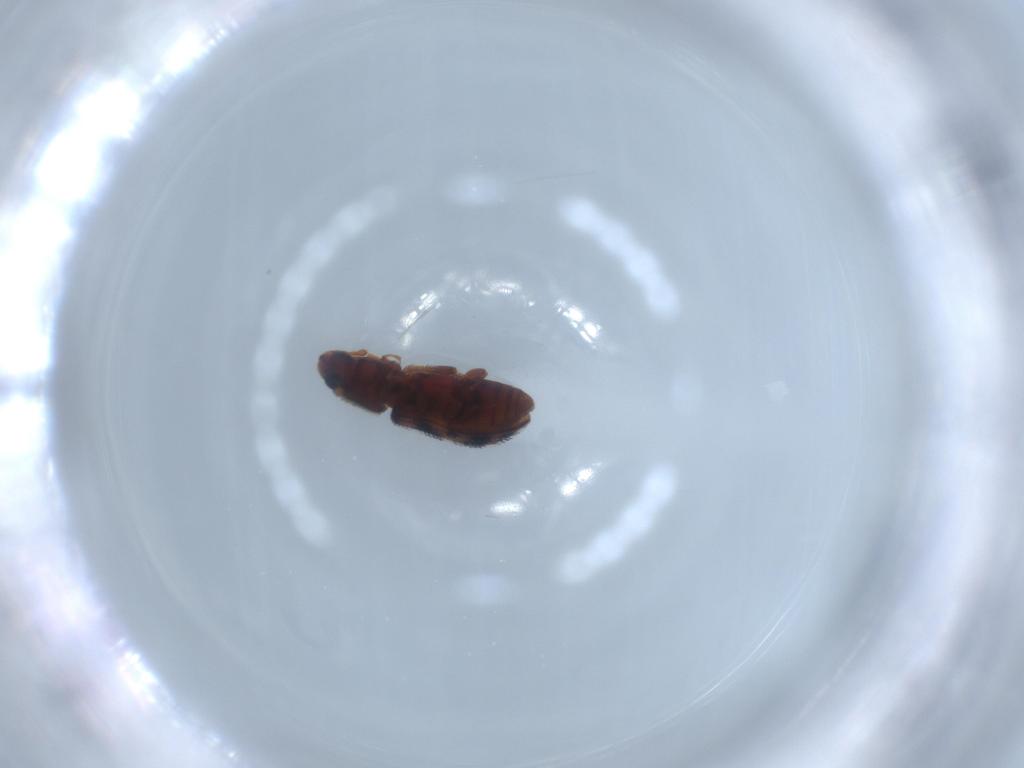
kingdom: Animalia
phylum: Arthropoda
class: Insecta
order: Coleoptera
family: Zopheridae
